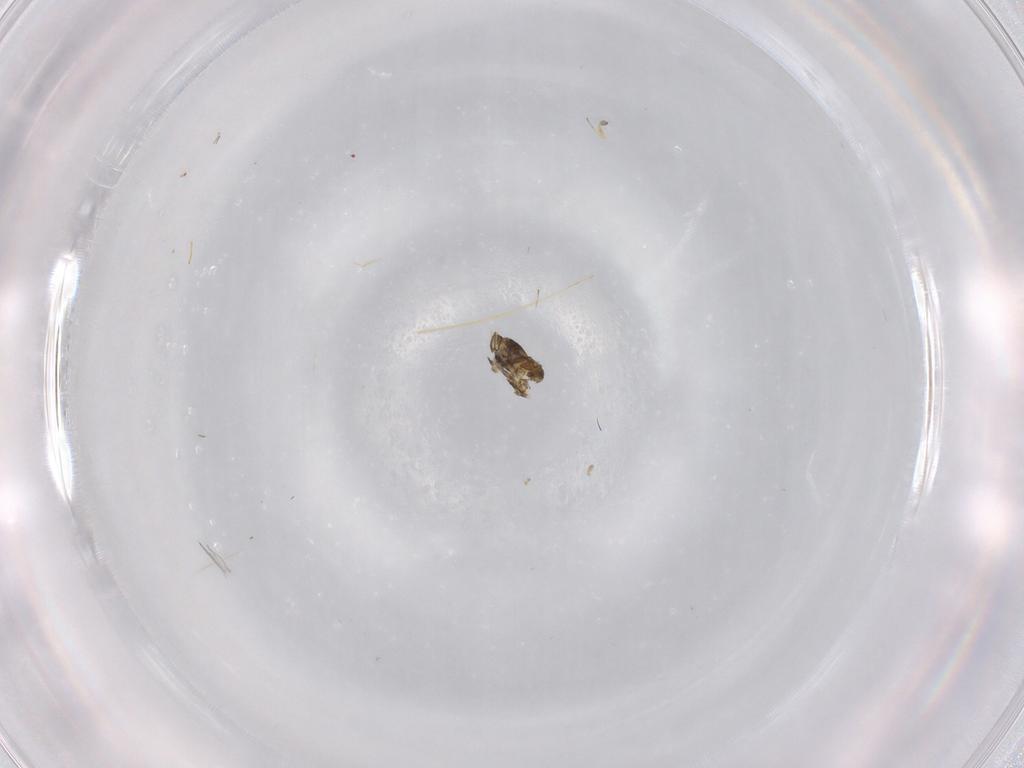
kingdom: Animalia
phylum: Arthropoda
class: Insecta
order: Hymenoptera
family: Trichogrammatidae
